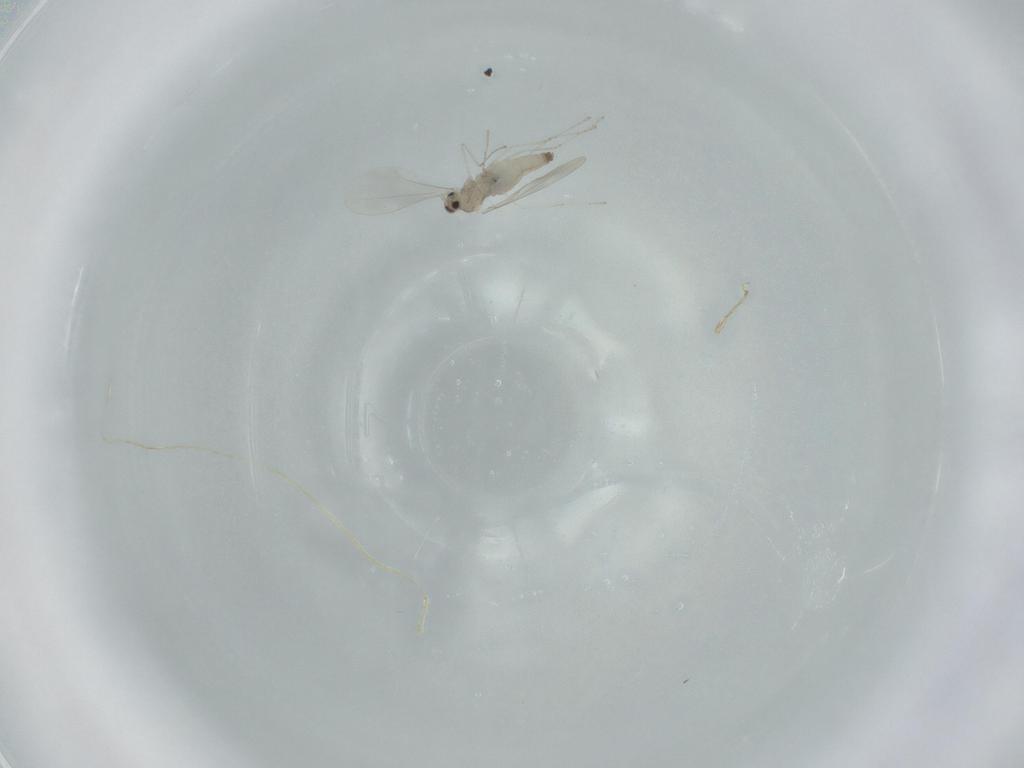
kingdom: Animalia
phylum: Arthropoda
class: Insecta
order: Diptera
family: Cecidomyiidae
